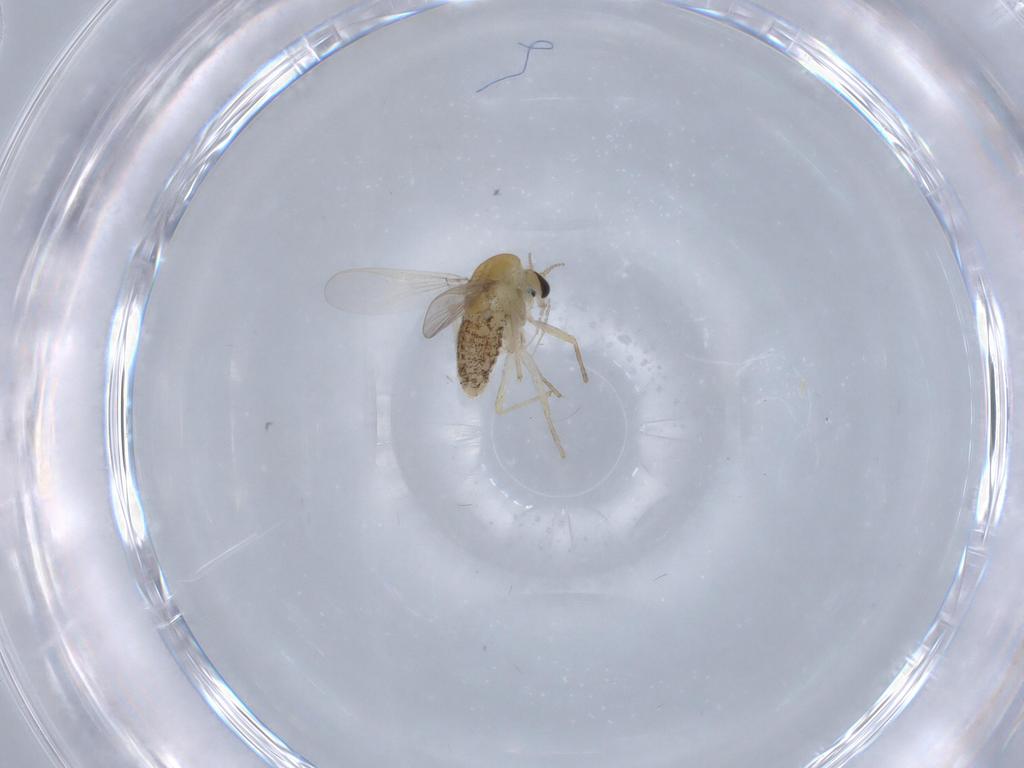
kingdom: Animalia
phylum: Arthropoda
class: Insecta
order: Diptera
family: Chironomidae
